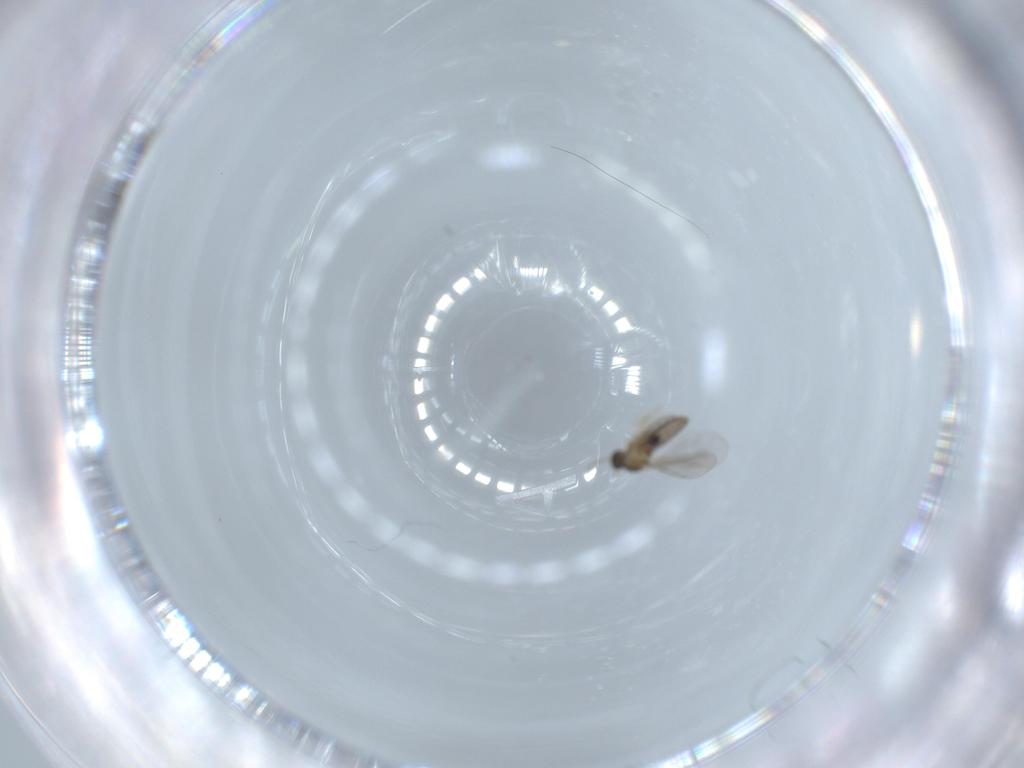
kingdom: Animalia
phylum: Arthropoda
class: Insecta
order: Diptera
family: Cecidomyiidae
